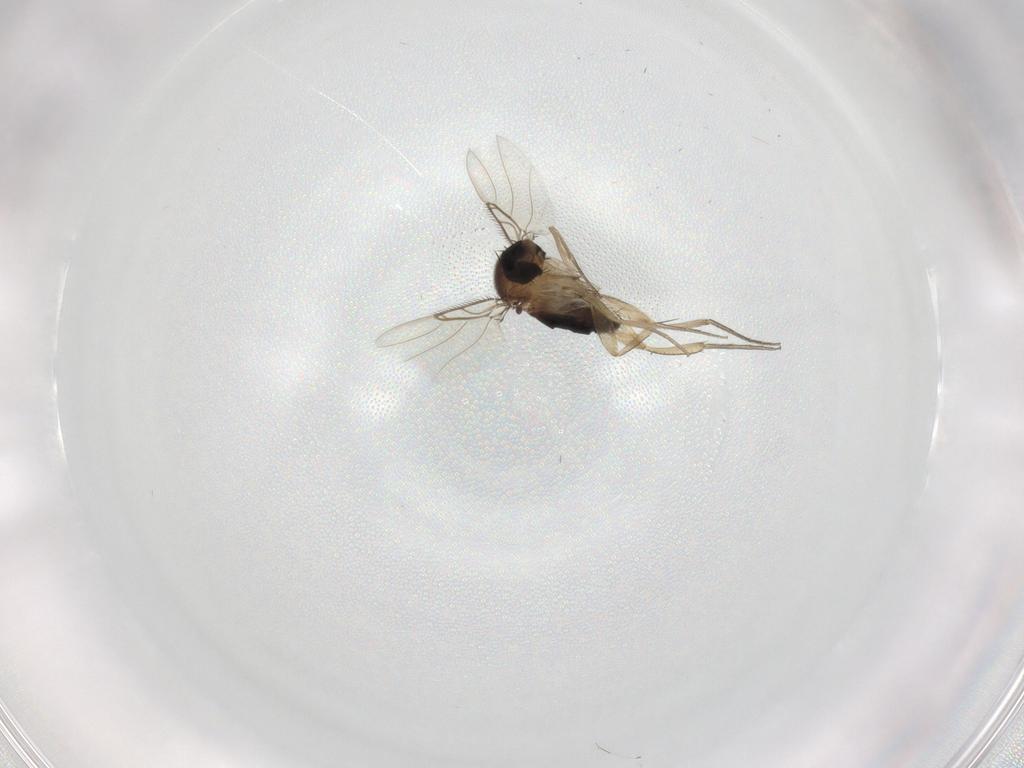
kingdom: Animalia
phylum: Arthropoda
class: Insecta
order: Diptera
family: Phoridae
